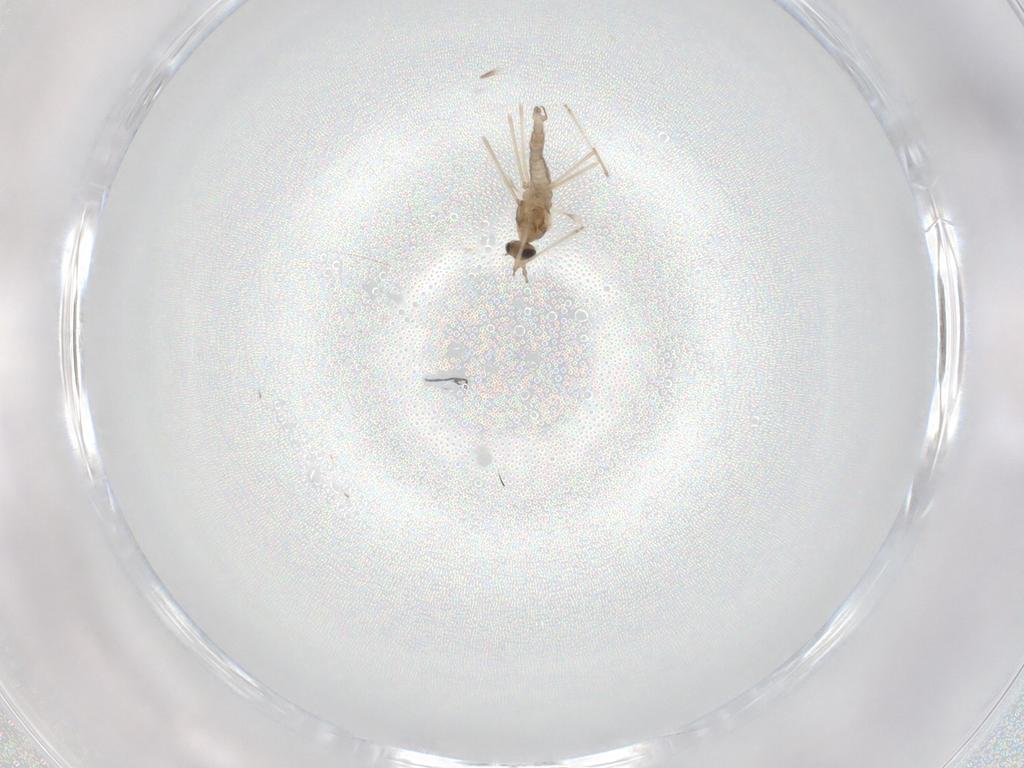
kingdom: Animalia
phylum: Arthropoda
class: Insecta
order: Diptera
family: Cecidomyiidae
